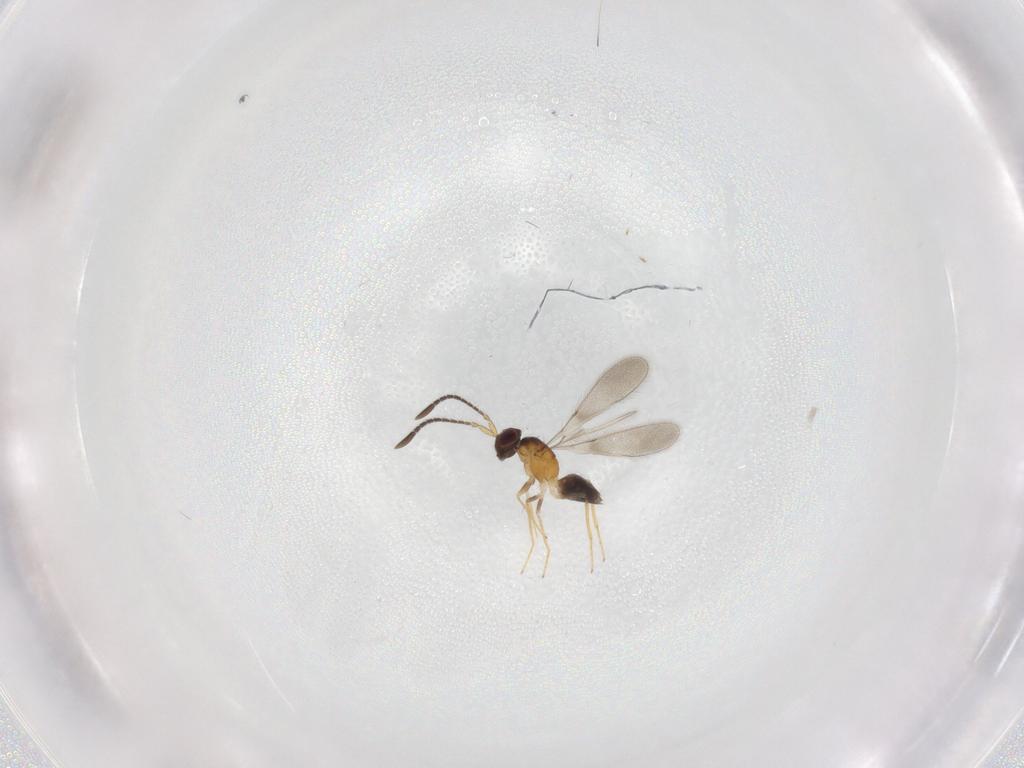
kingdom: Animalia
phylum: Arthropoda
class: Insecta
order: Hymenoptera
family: Mymaridae
